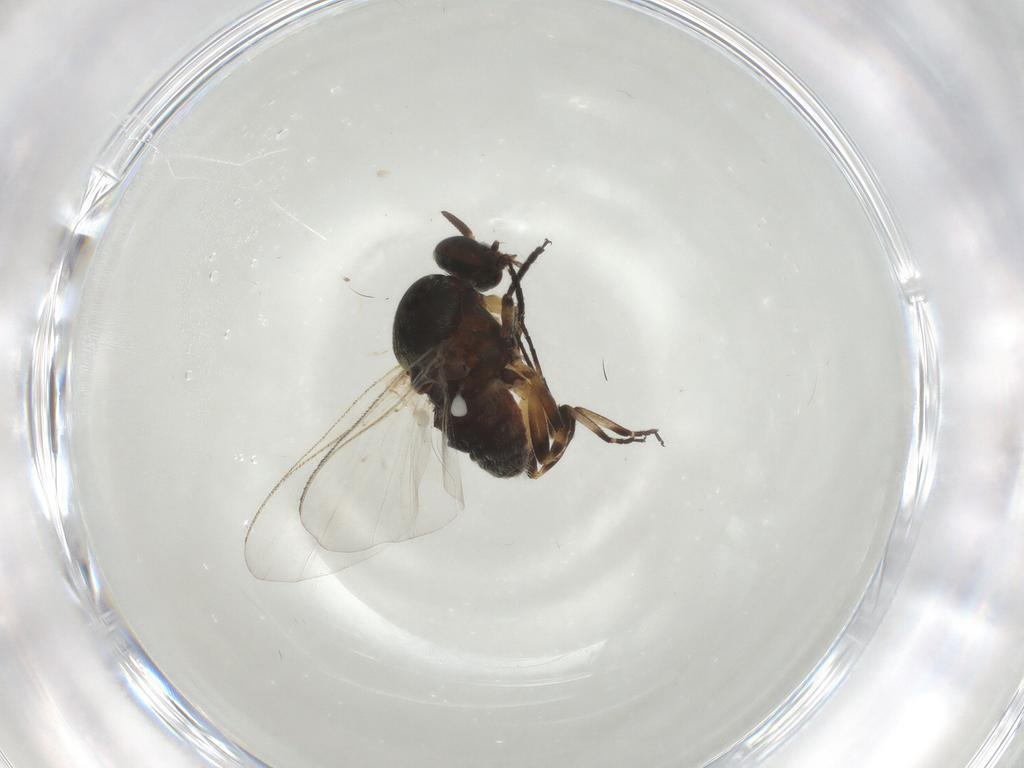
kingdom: Animalia
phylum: Arthropoda
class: Insecta
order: Diptera
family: Ceratopogonidae
